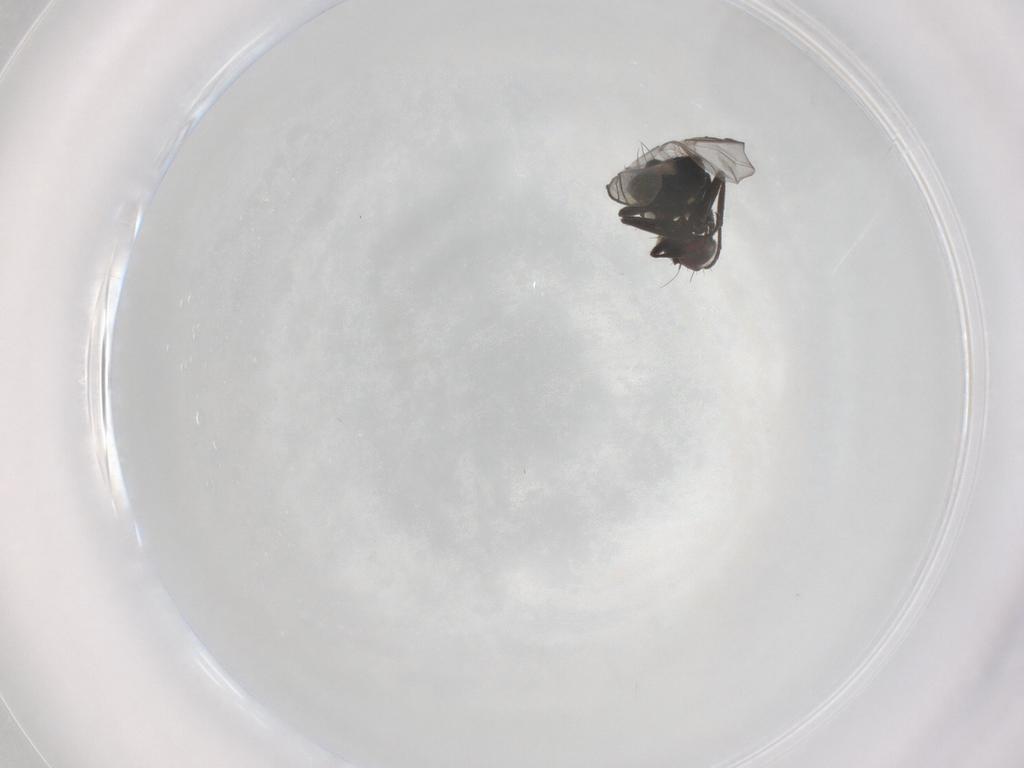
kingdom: Animalia
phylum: Arthropoda
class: Insecta
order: Diptera
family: Agromyzidae
